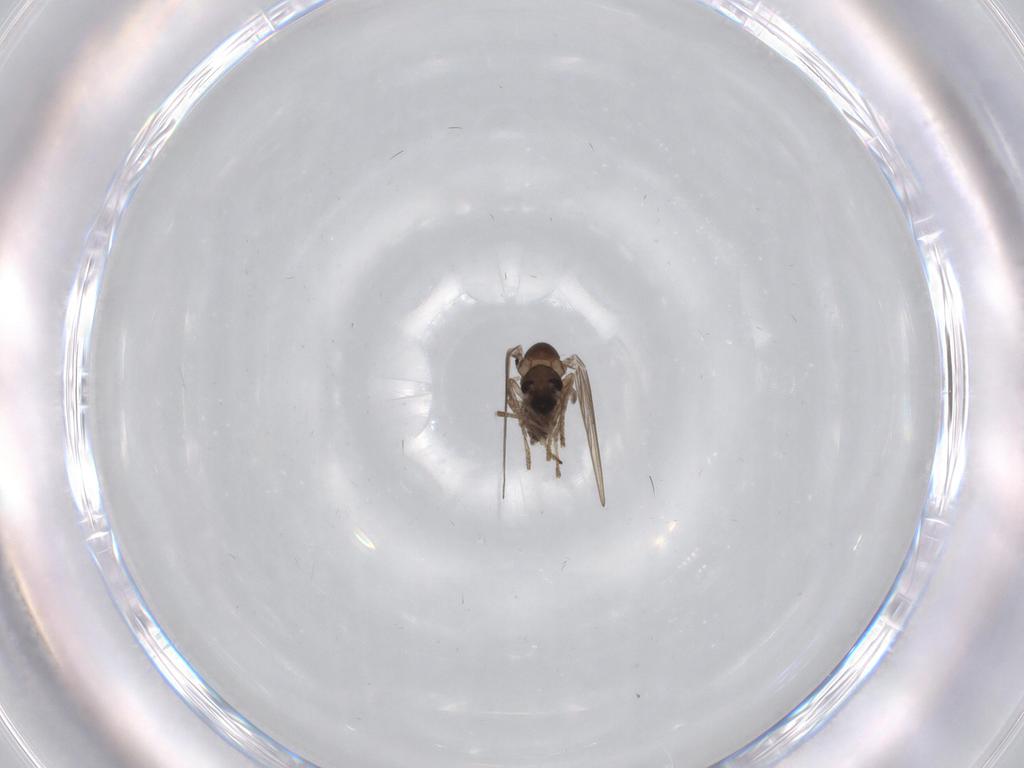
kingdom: Animalia
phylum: Arthropoda
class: Insecta
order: Diptera
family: Psychodidae
